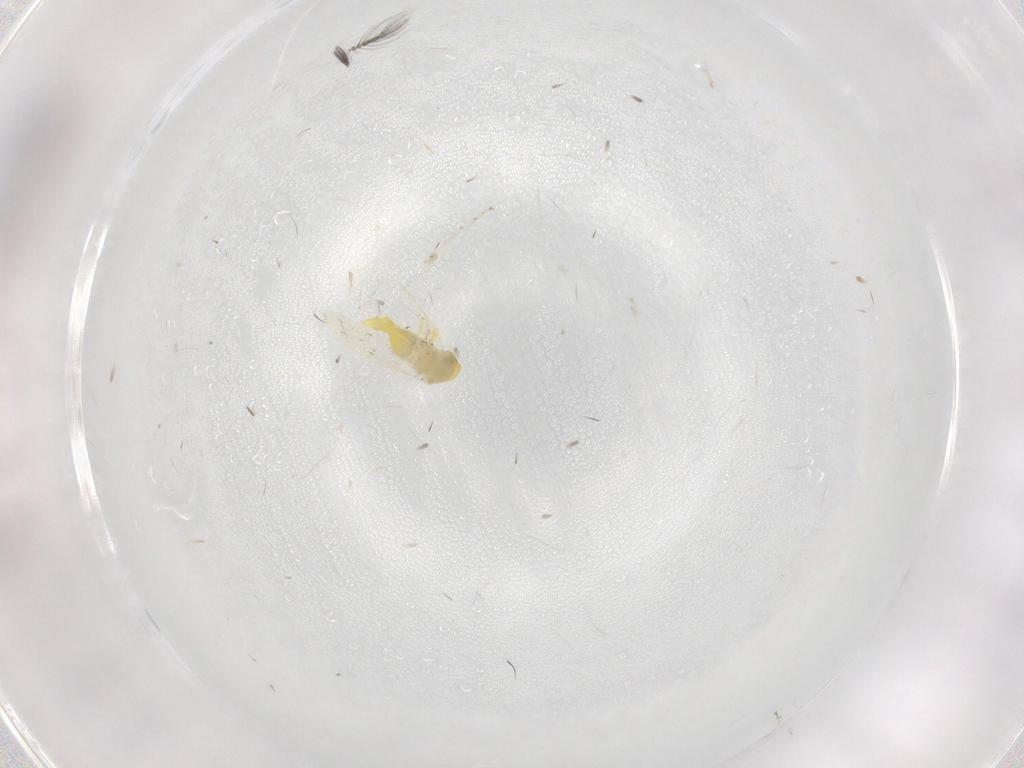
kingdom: Animalia
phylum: Arthropoda
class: Insecta
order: Hemiptera
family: Aleyrodidae
